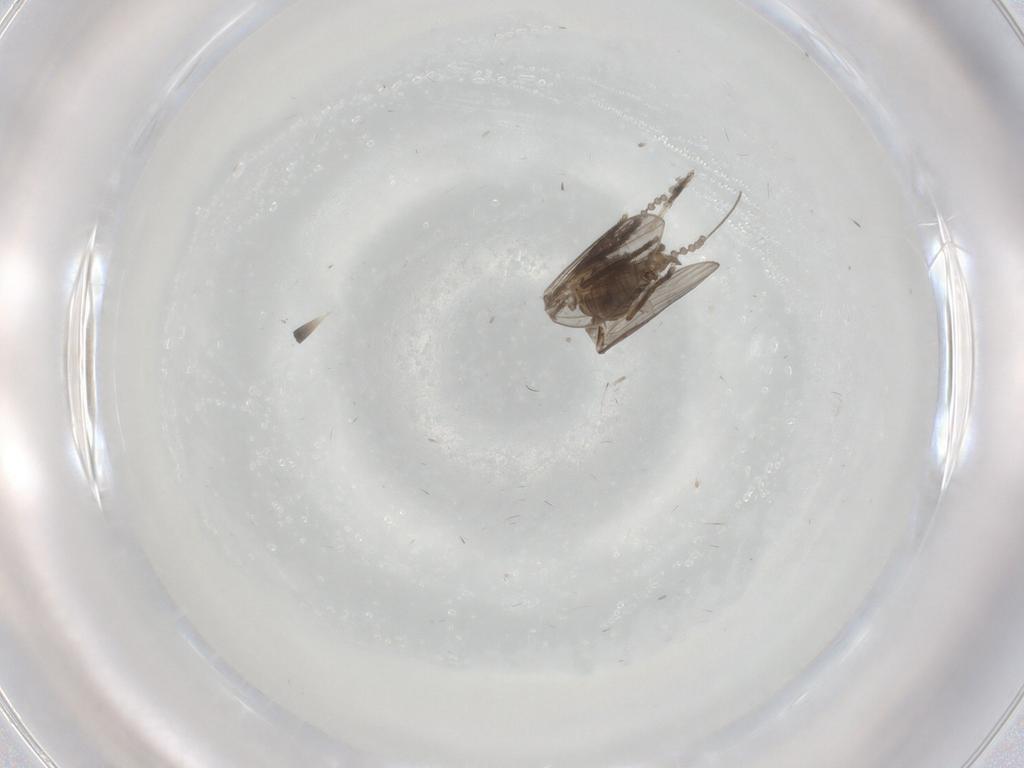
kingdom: Animalia
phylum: Arthropoda
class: Insecta
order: Diptera
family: Psychodidae
